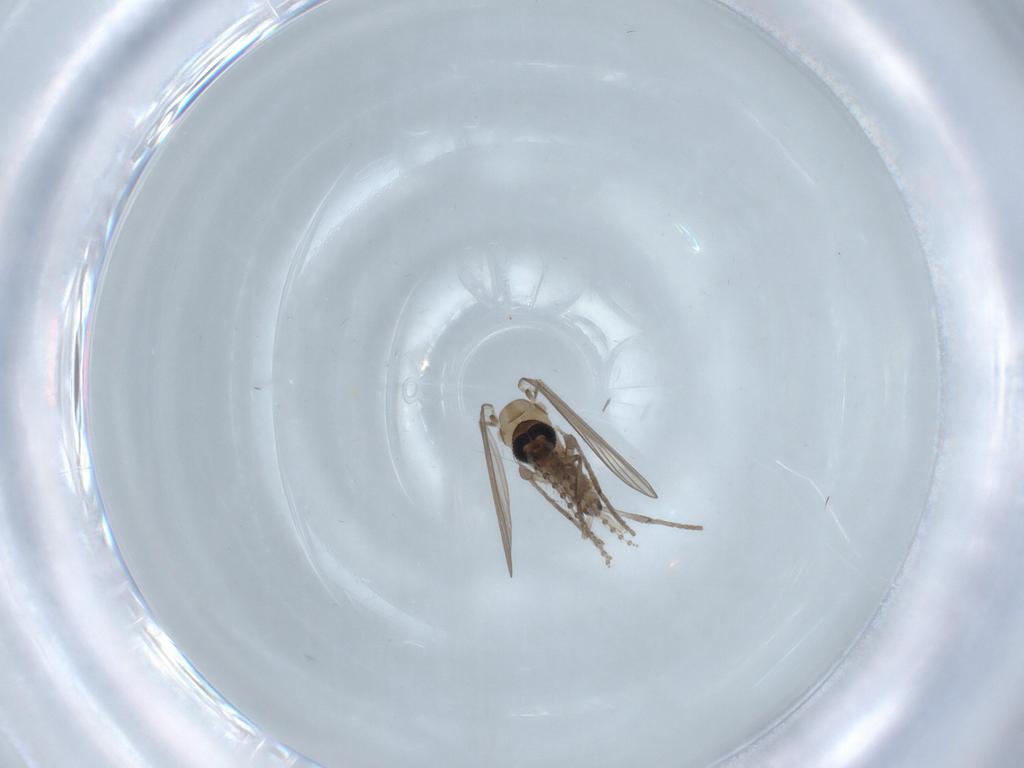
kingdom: Animalia
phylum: Arthropoda
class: Insecta
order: Diptera
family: Psychodidae
